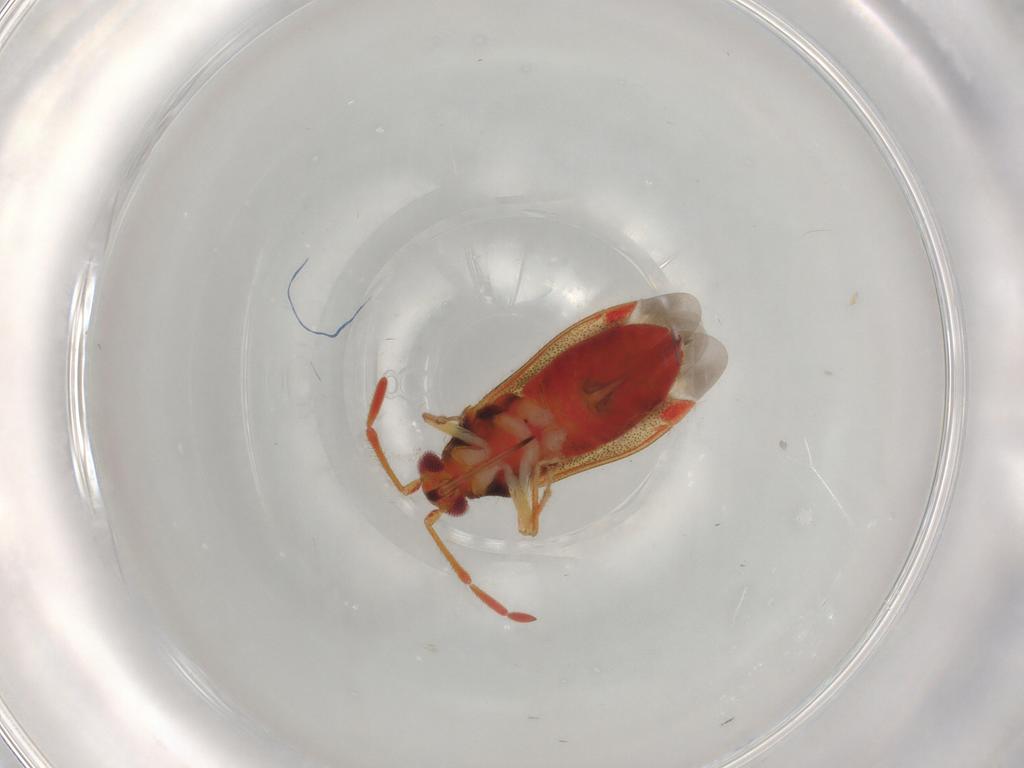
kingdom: Animalia
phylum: Arthropoda
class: Insecta
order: Hemiptera
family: Miridae
